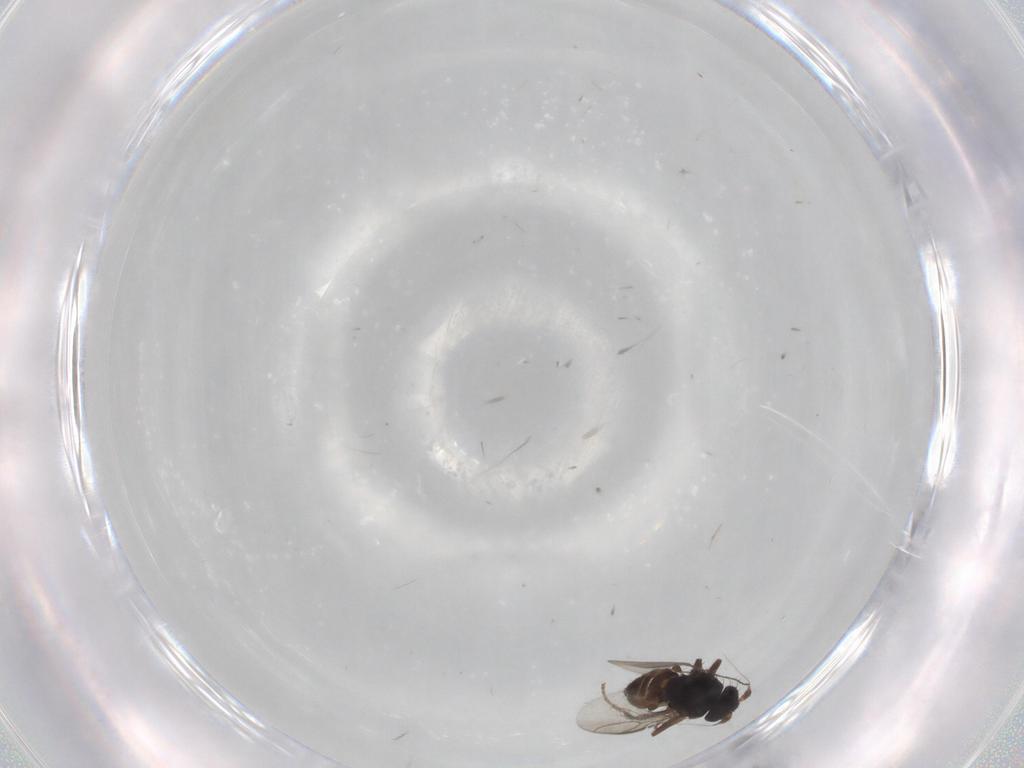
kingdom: Animalia
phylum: Arthropoda
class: Insecta
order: Diptera
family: Sphaeroceridae
